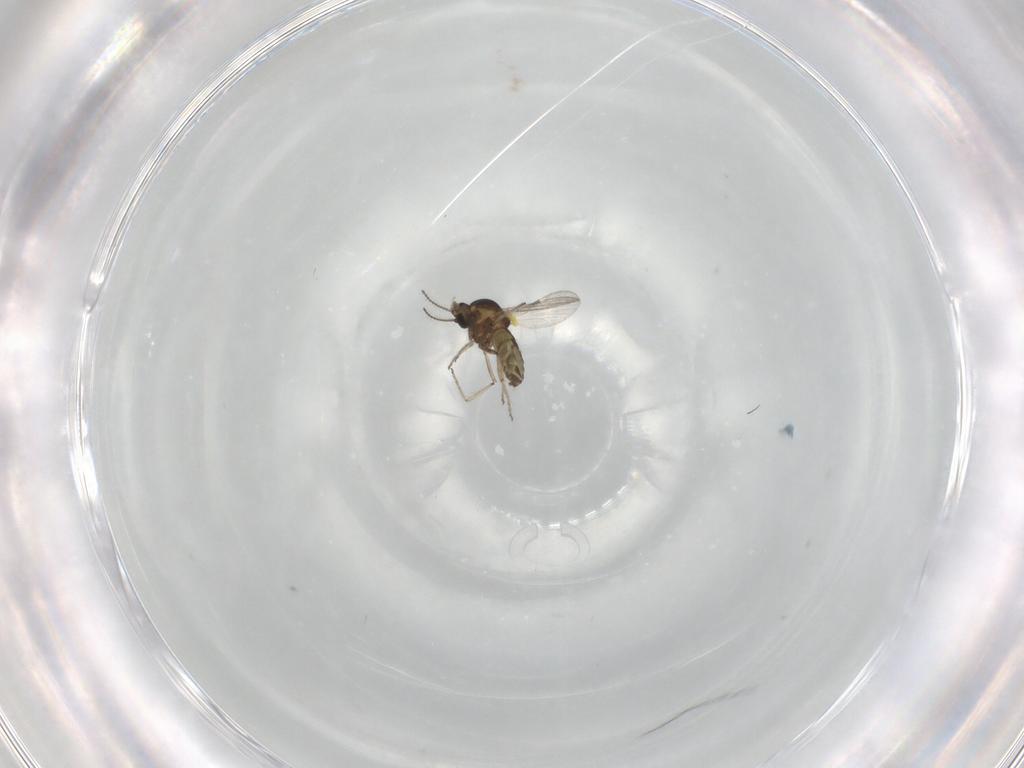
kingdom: Animalia
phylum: Arthropoda
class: Insecta
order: Diptera
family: Ceratopogonidae
